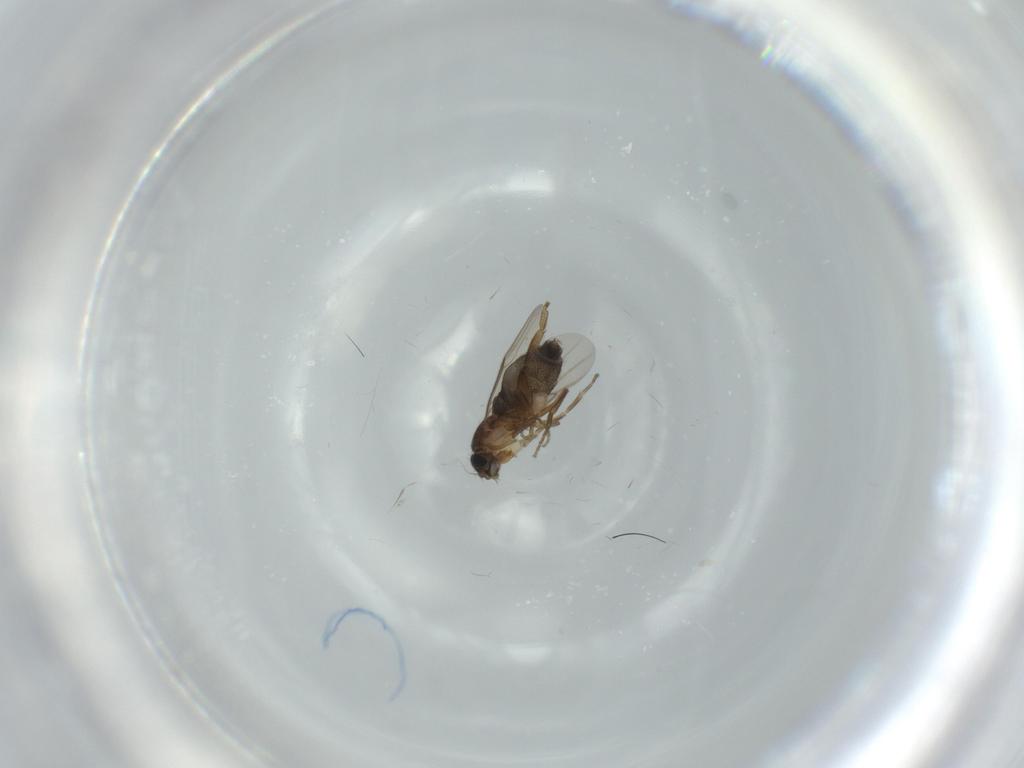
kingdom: Animalia
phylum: Arthropoda
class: Insecta
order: Diptera
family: Phoridae
